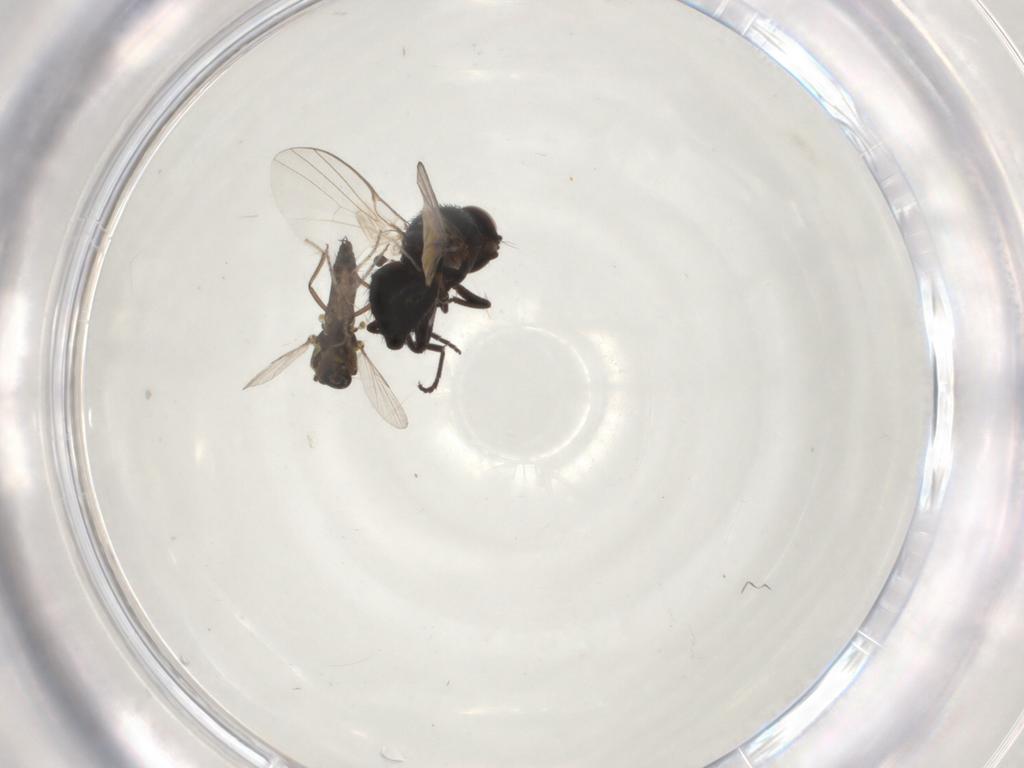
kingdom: Animalia
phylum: Arthropoda
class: Insecta
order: Diptera
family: Ceratopogonidae
